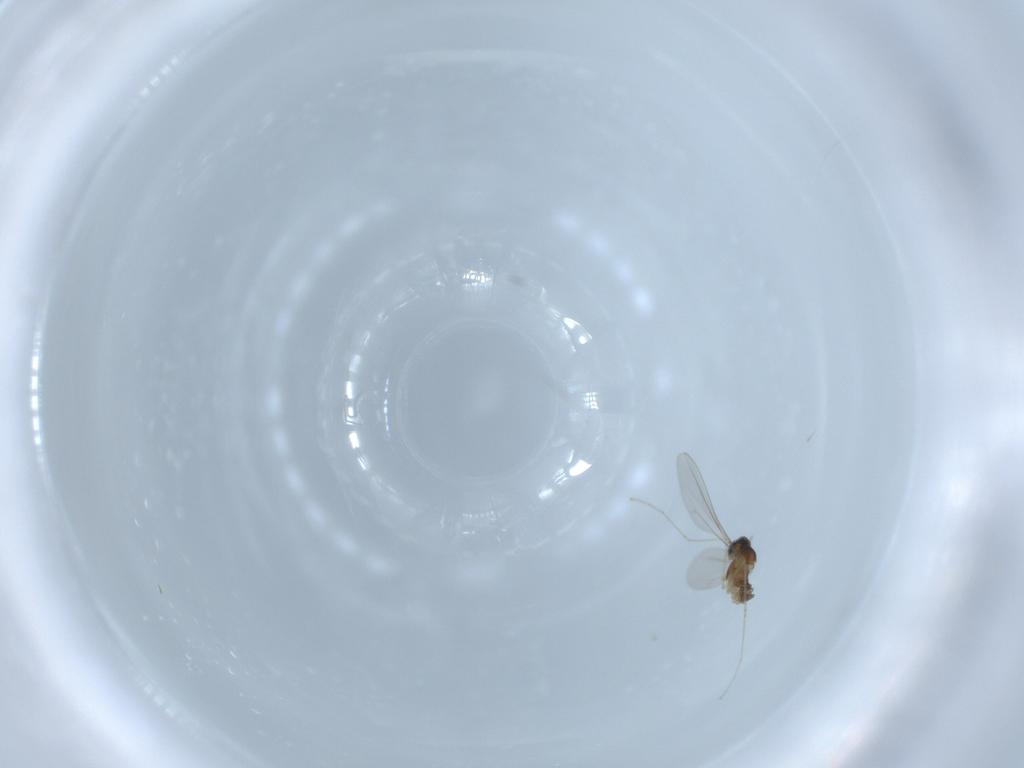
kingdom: Animalia
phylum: Arthropoda
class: Insecta
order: Diptera
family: Cecidomyiidae
